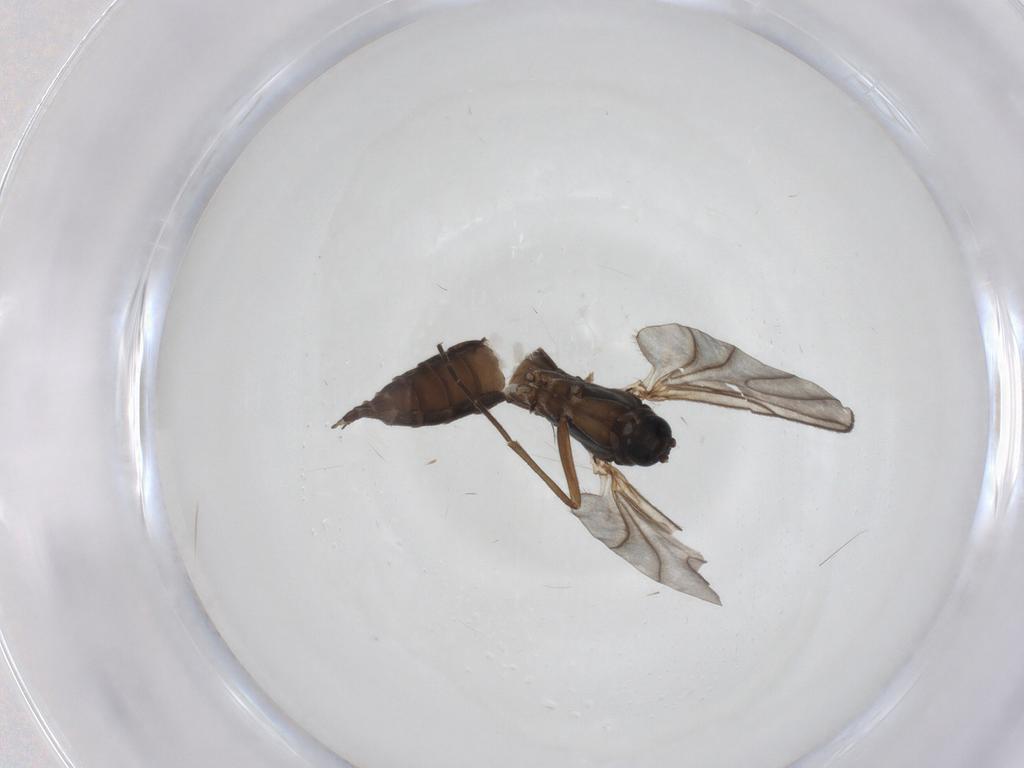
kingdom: Animalia
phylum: Arthropoda
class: Insecta
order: Diptera
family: Sciaridae
